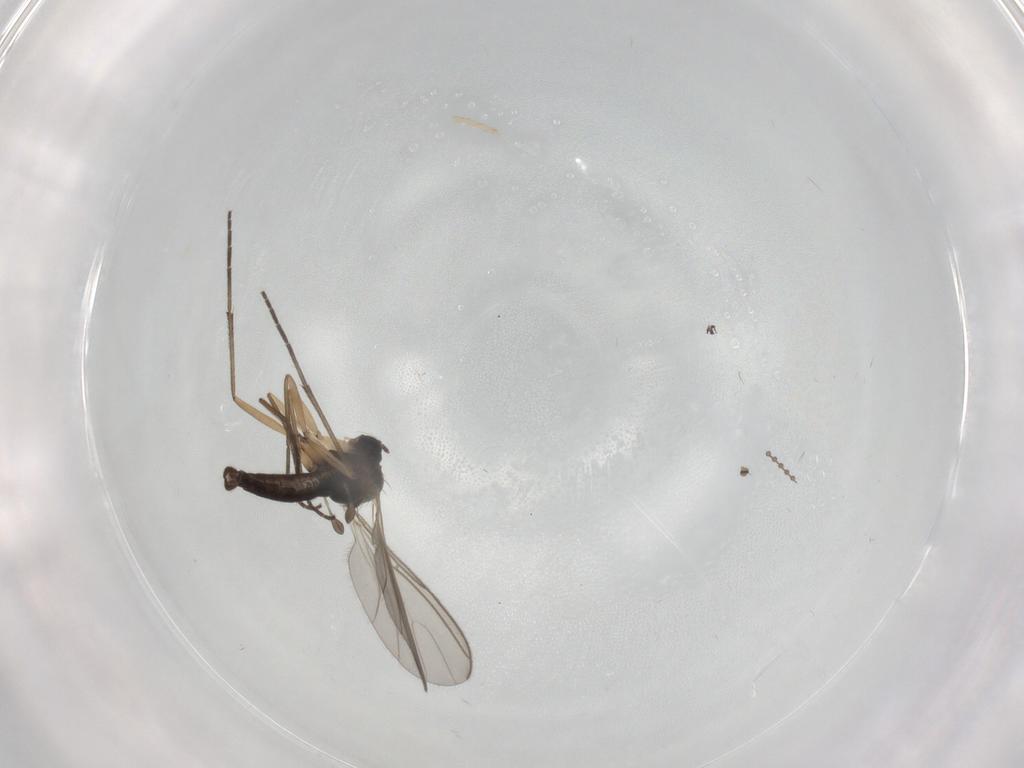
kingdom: Animalia
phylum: Arthropoda
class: Insecta
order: Diptera
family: Sciaridae
